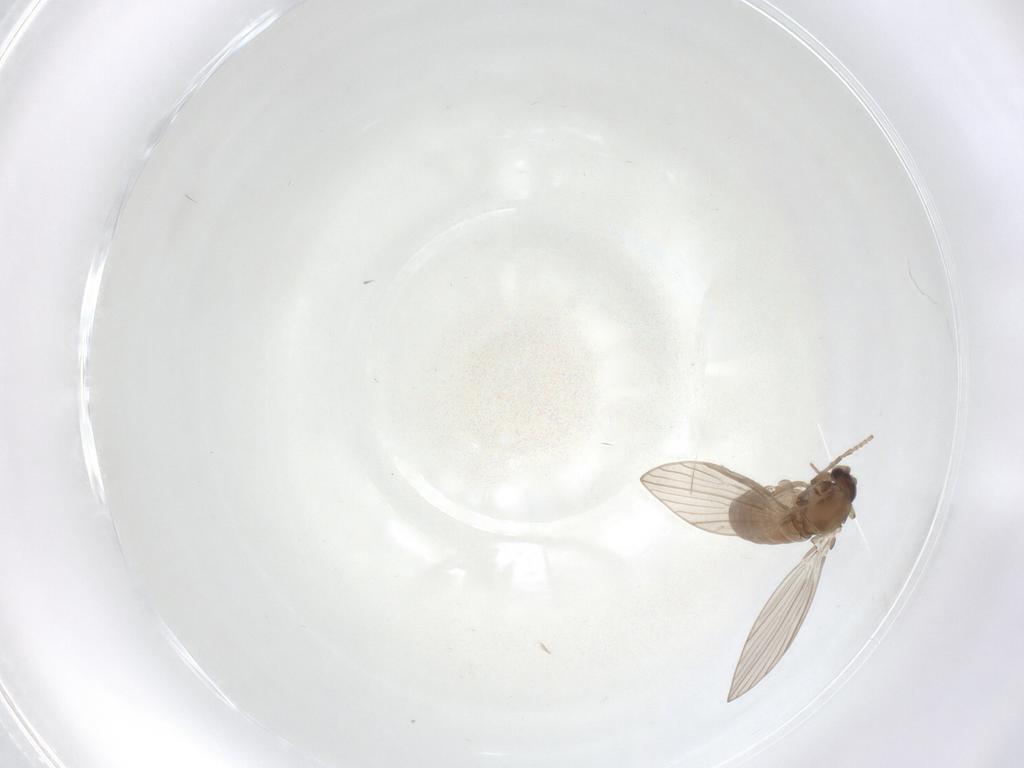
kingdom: Animalia
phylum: Arthropoda
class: Insecta
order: Diptera
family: Psychodidae
